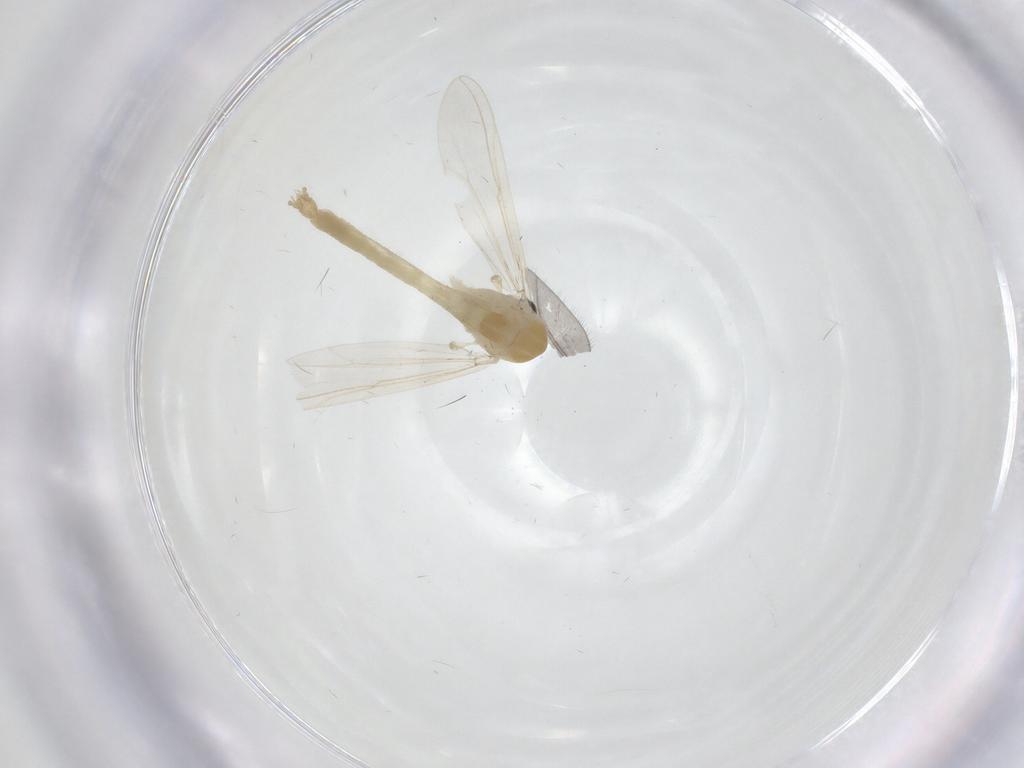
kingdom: Animalia
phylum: Arthropoda
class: Insecta
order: Diptera
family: Chironomidae
